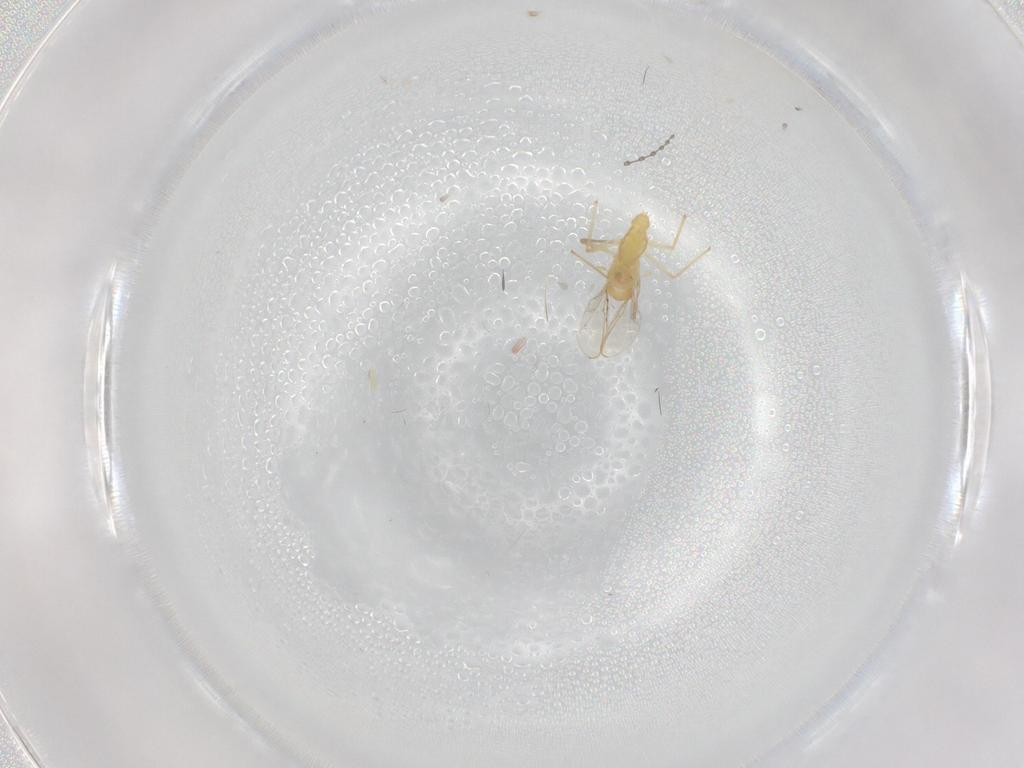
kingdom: Animalia
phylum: Arthropoda
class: Insecta
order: Diptera
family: Cecidomyiidae
